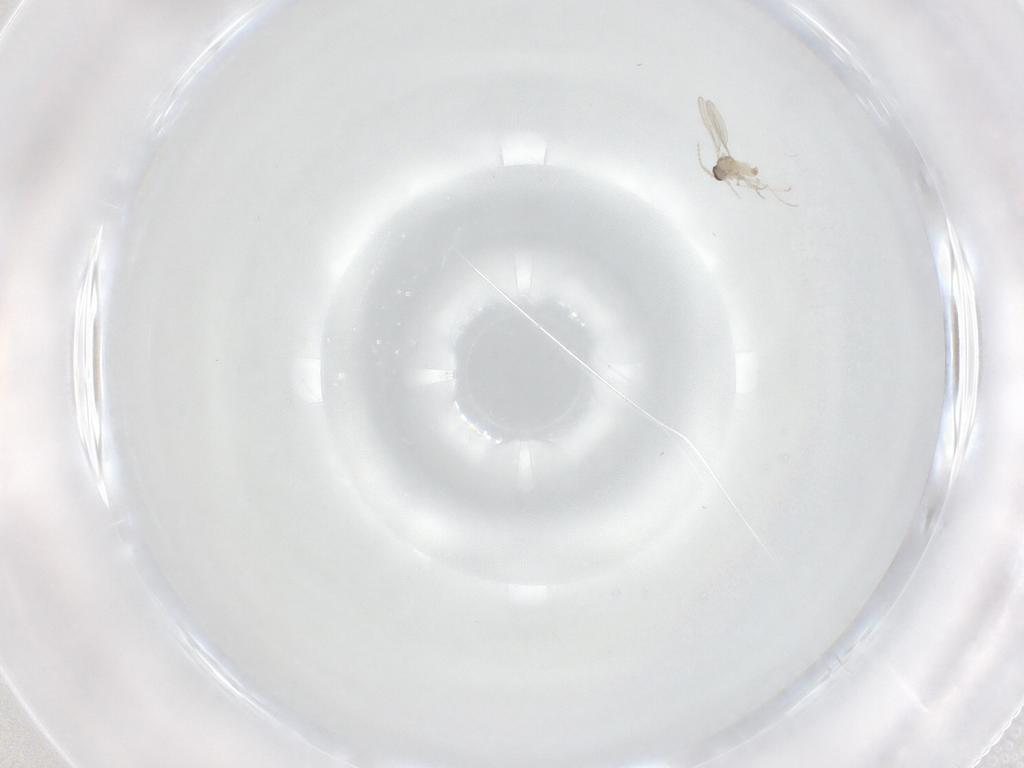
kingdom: Animalia
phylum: Arthropoda
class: Insecta
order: Diptera
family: Cecidomyiidae
